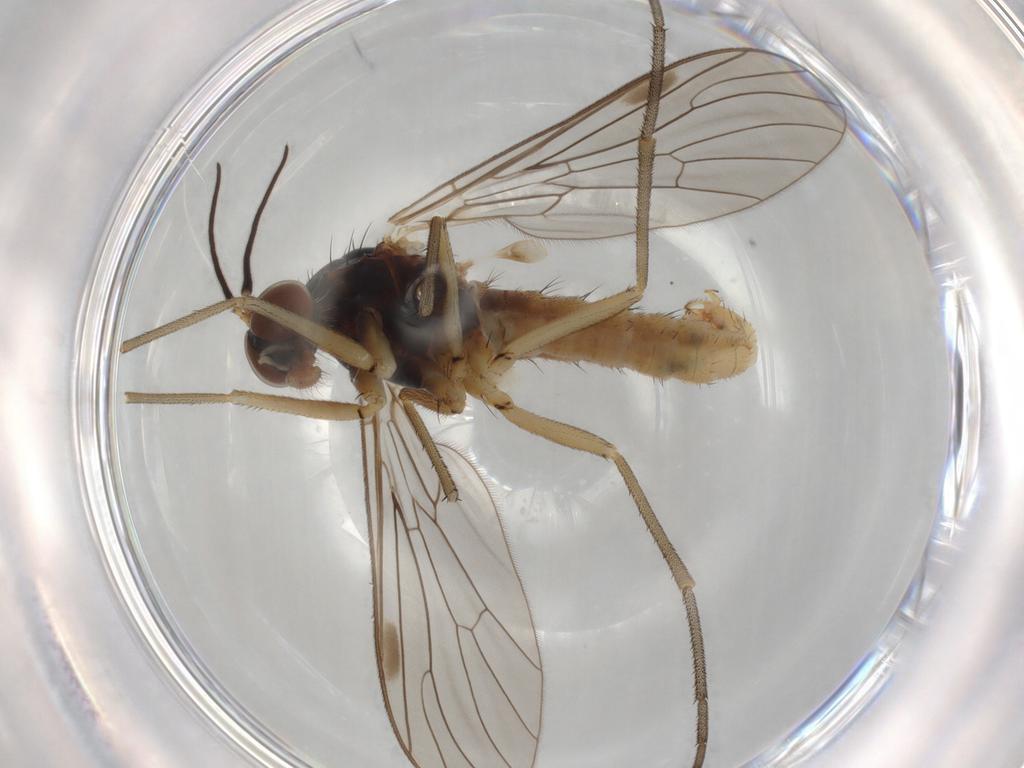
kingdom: Animalia
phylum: Arthropoda
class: Insecta
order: Diptera
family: Empididae
